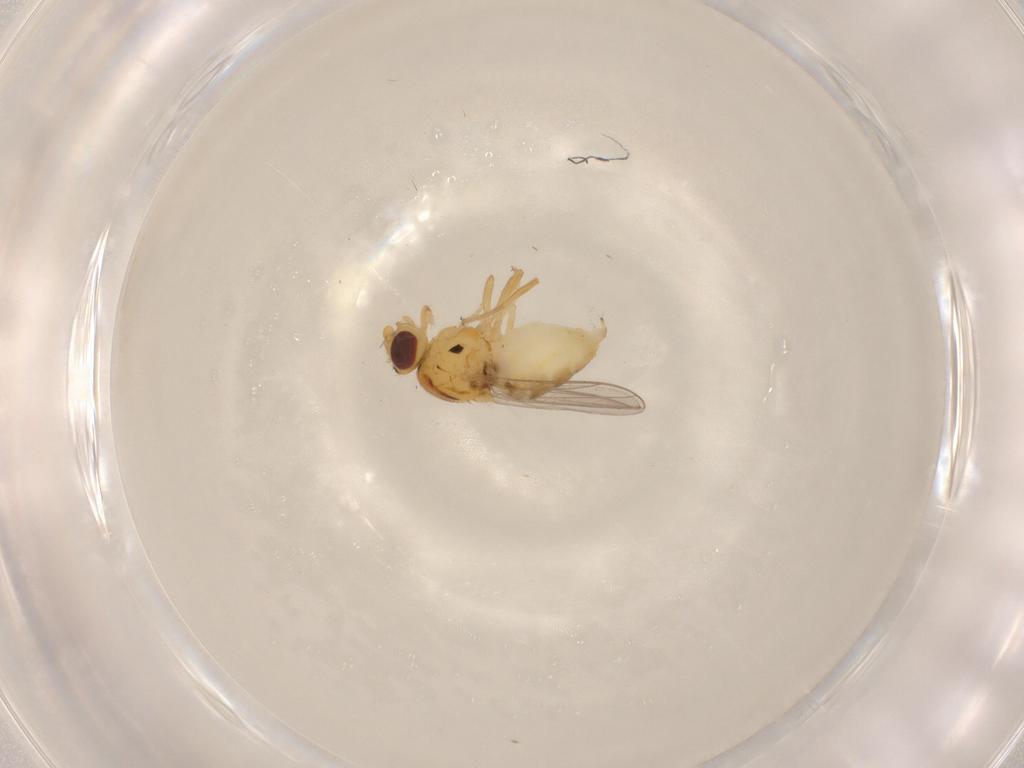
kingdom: Animalia
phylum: Arthropoda
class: Insecta
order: Diptera
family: Chloropidae
